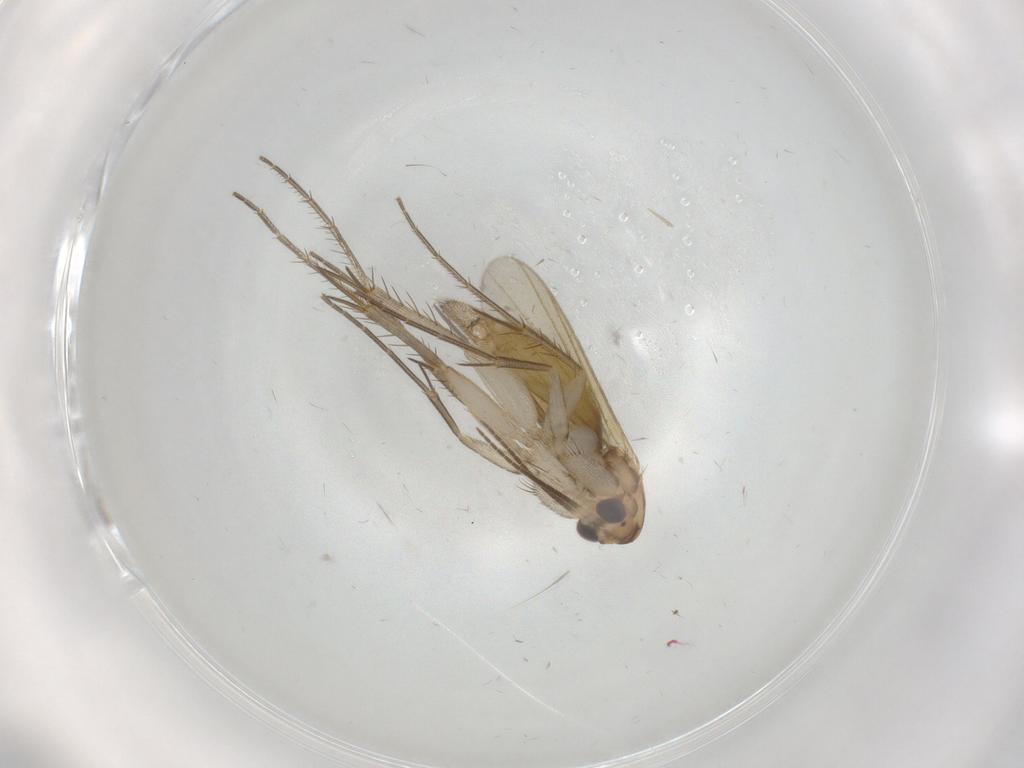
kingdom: Animalia
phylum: Arthropoda
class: Insecta
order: Diptera
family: Mycetophilidae
